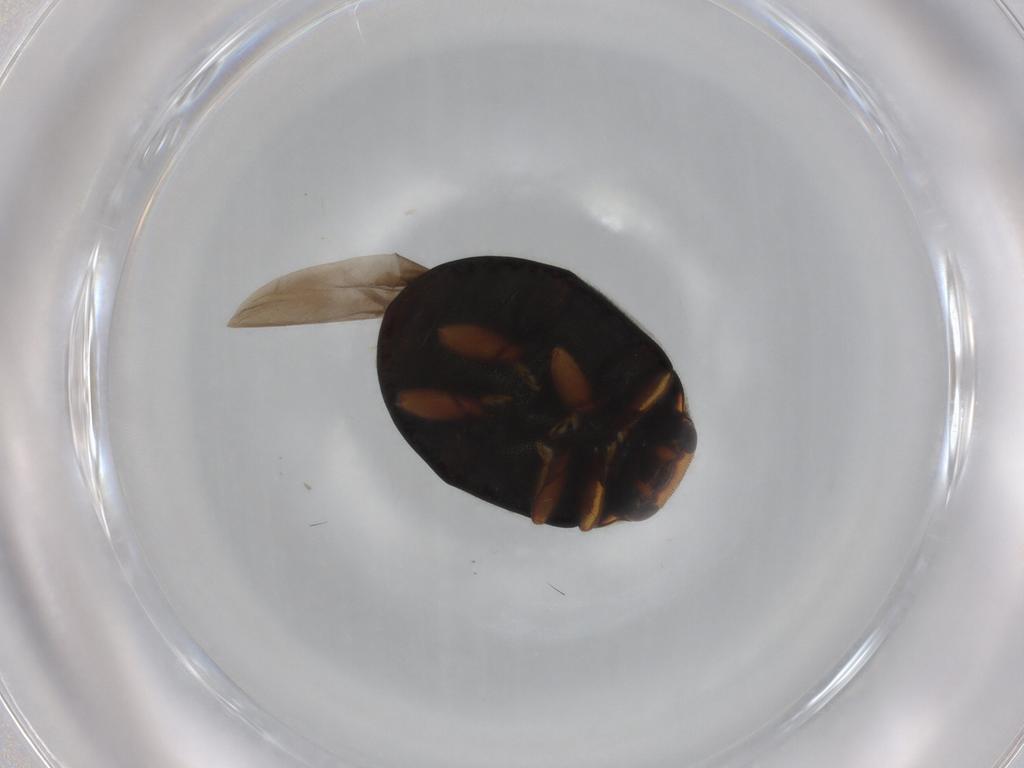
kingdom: Animalia
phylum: Arthropoda
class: Insecta
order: Coleoptera
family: Coccinellidae
